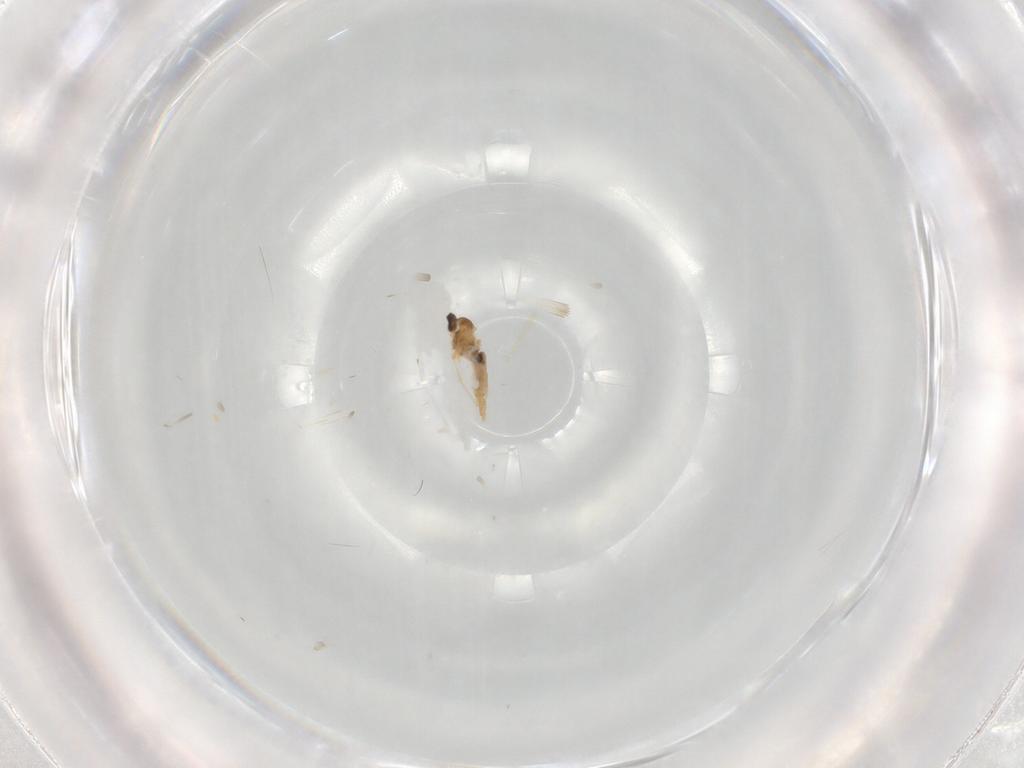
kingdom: Animalia
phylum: Arthropoda
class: Insecta
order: Diptera
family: Cecidomyiidae
